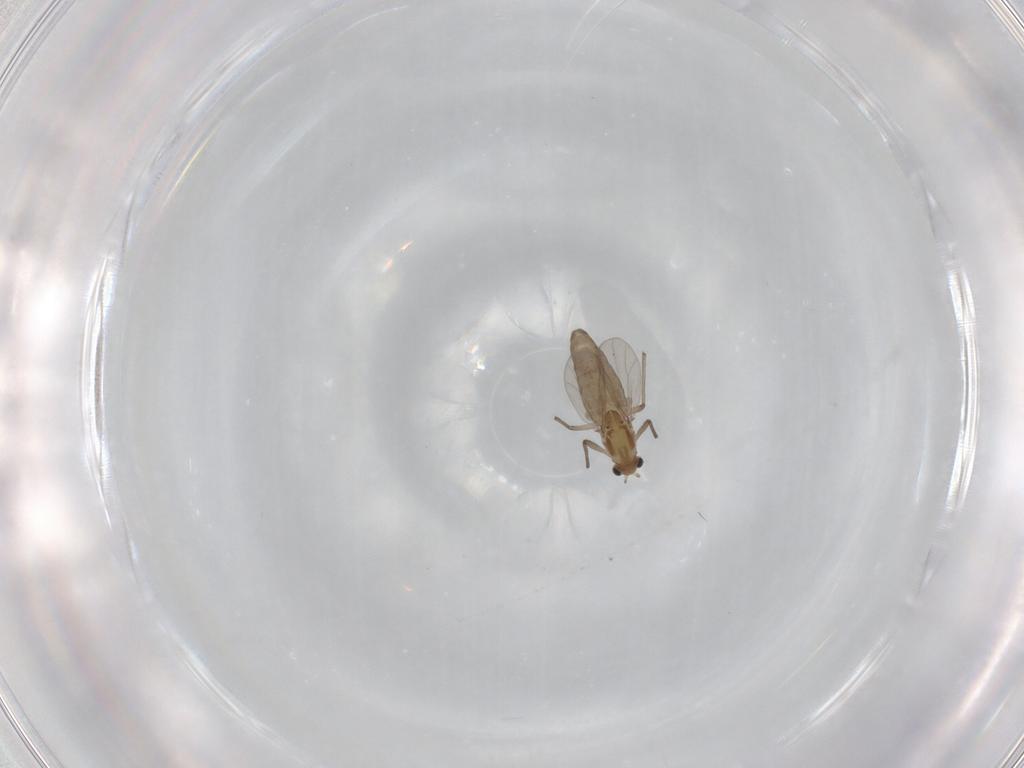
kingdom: Animalia
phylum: Arthropoda
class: Insecta
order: Diptera
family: Chironomidae
